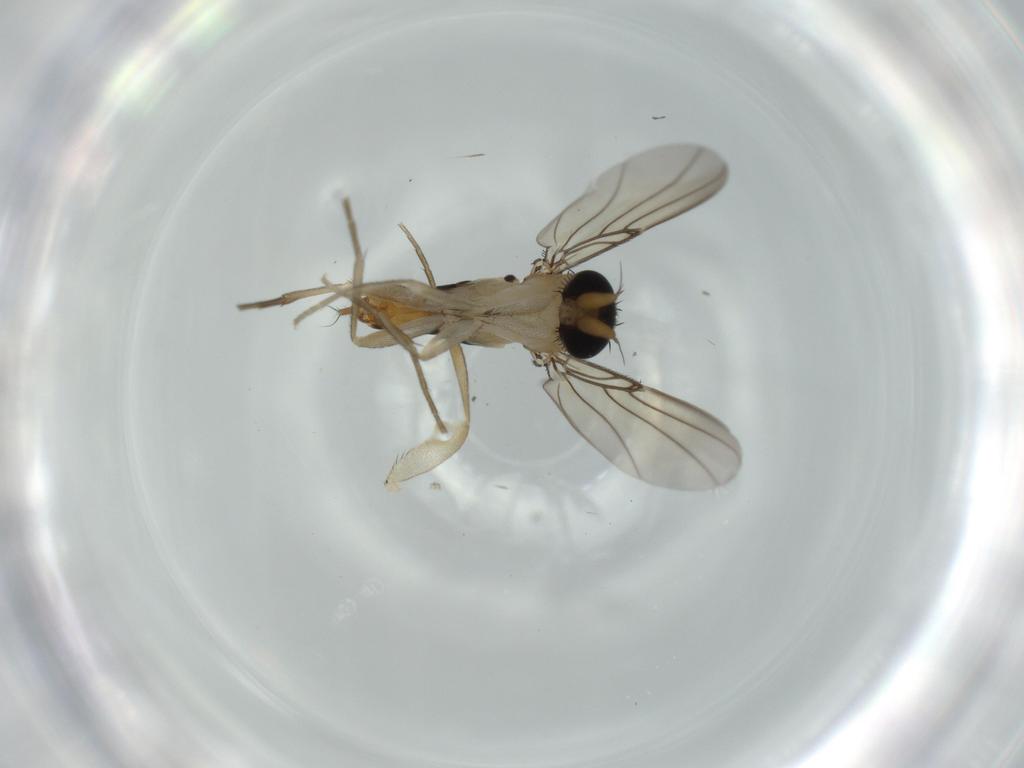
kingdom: Animalia
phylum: Arthropoda
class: Insecta
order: Diptera
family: Phoridae
